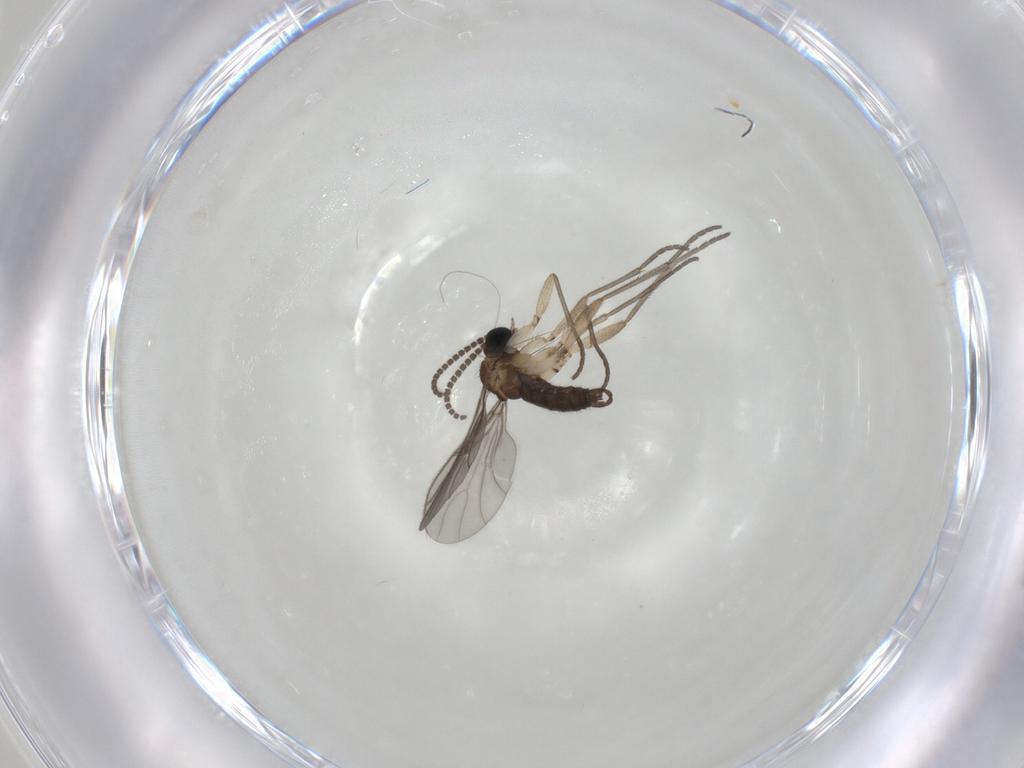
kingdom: Animalia
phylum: Arthropoda
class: Insecta
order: Diptera
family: Sciaridae
